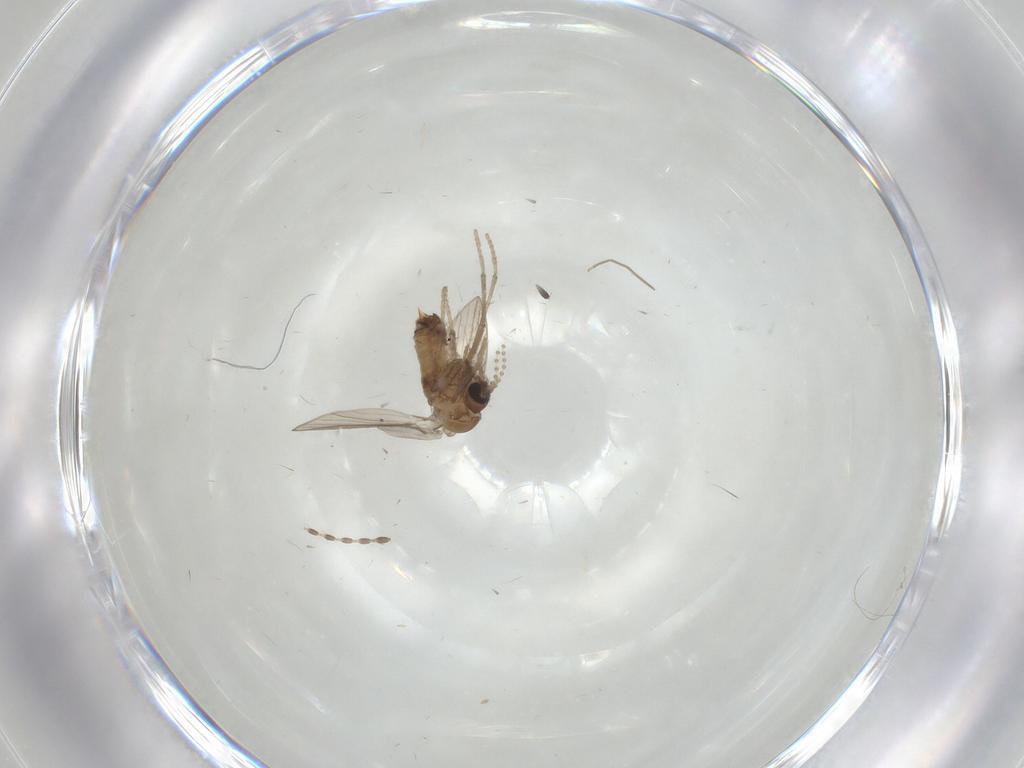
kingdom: Animalia
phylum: Arthropoda
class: Insecta
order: Diptera
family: Psychodidae
